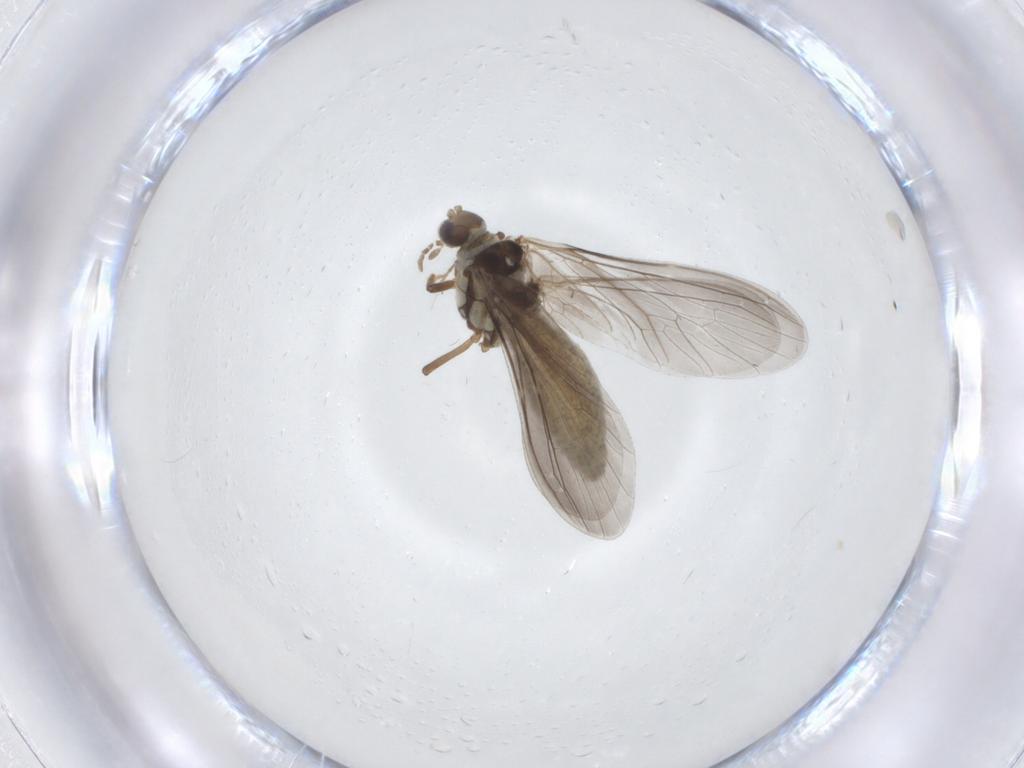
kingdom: Animalia
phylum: Arthropoda
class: Insecta
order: Neuroptera
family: Coniopterygidae
